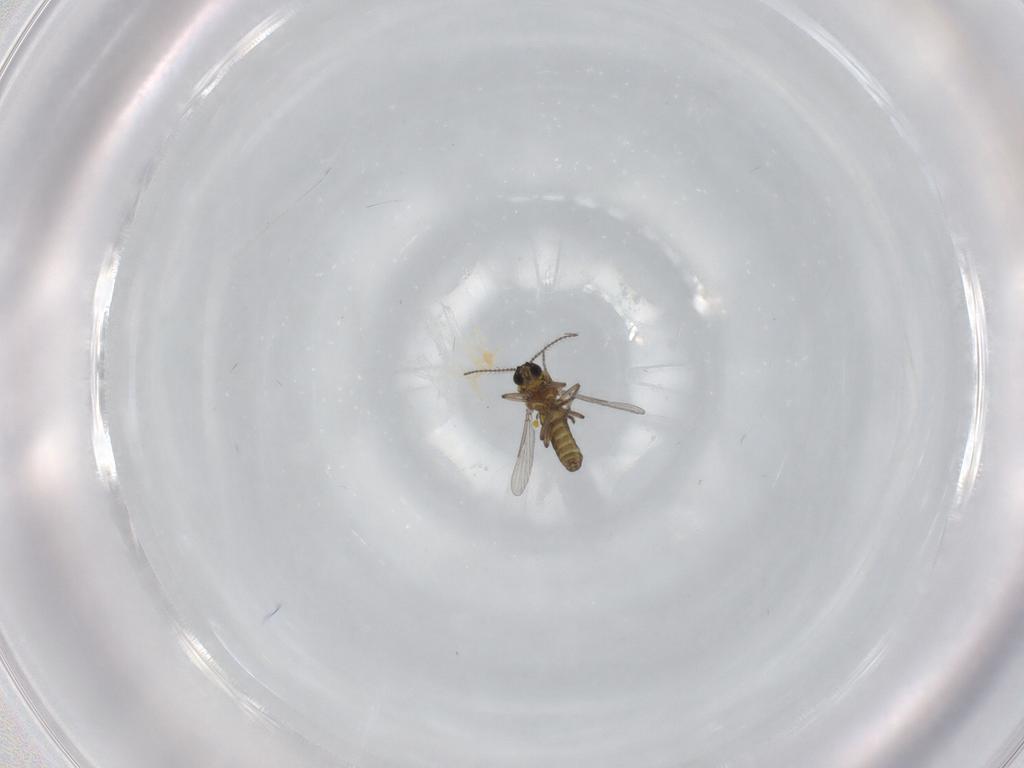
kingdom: Animalia
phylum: Arthropoda
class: Insecta
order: Diptera
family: Ceratopogonidae
